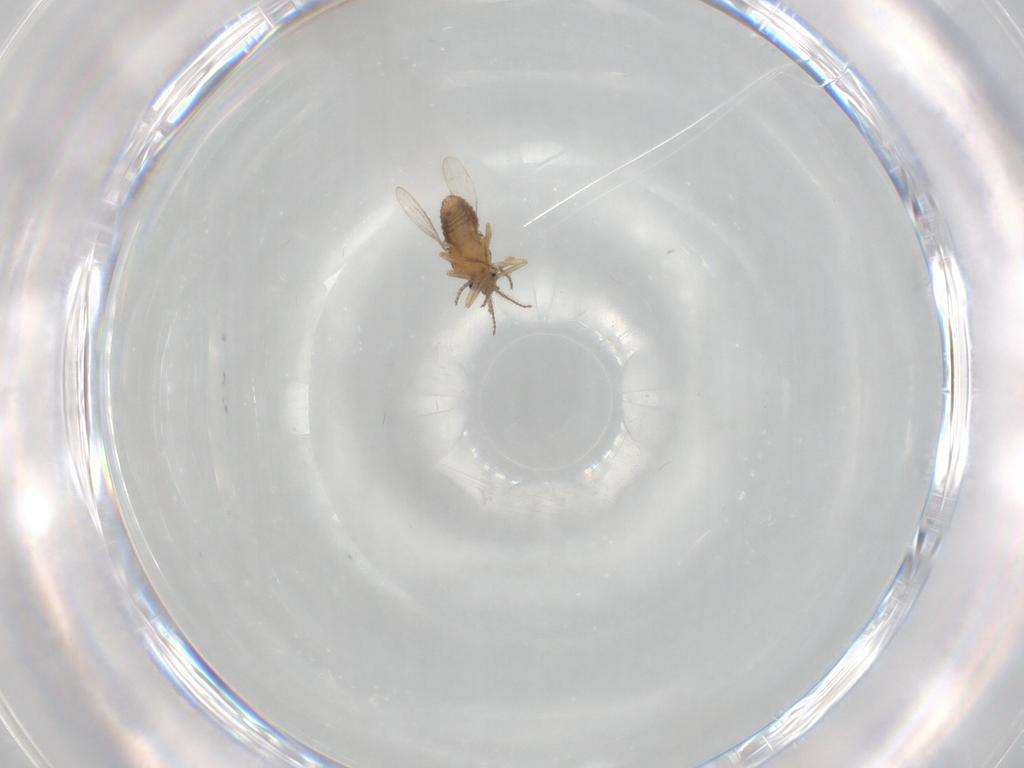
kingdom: Animalia
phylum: Arthropoda
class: Insecta
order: Diptera
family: Ceratopogonidae
